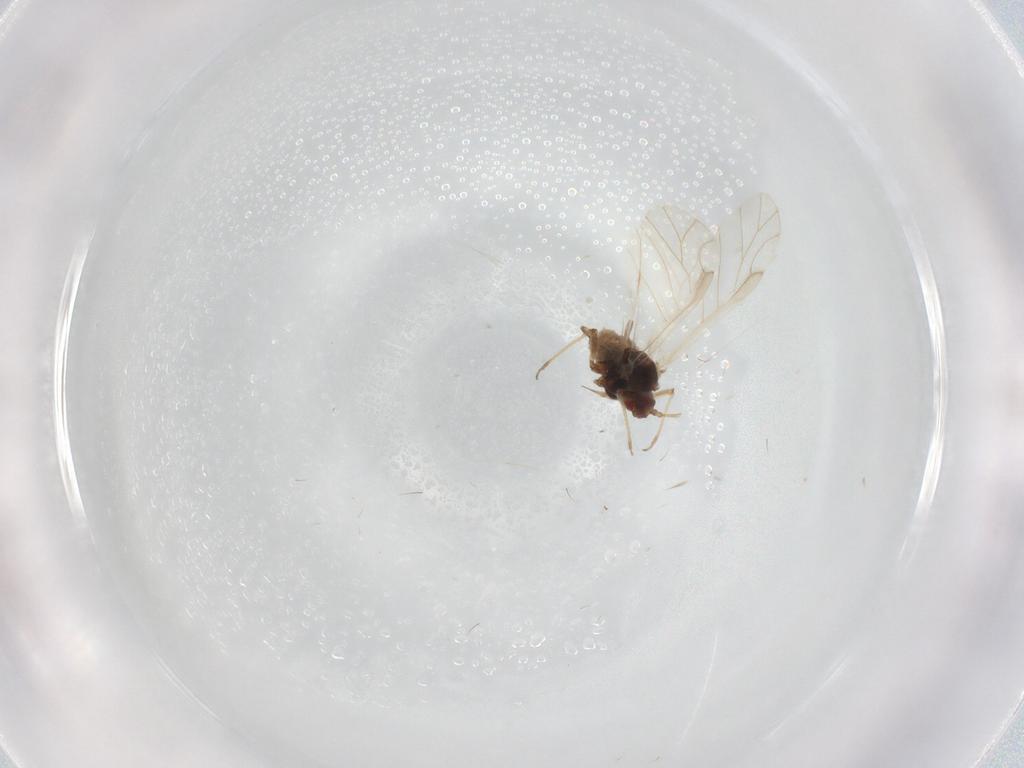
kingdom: Animalia
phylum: Arthropoda
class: Insecta
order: Hemiptera
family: Aphididae
